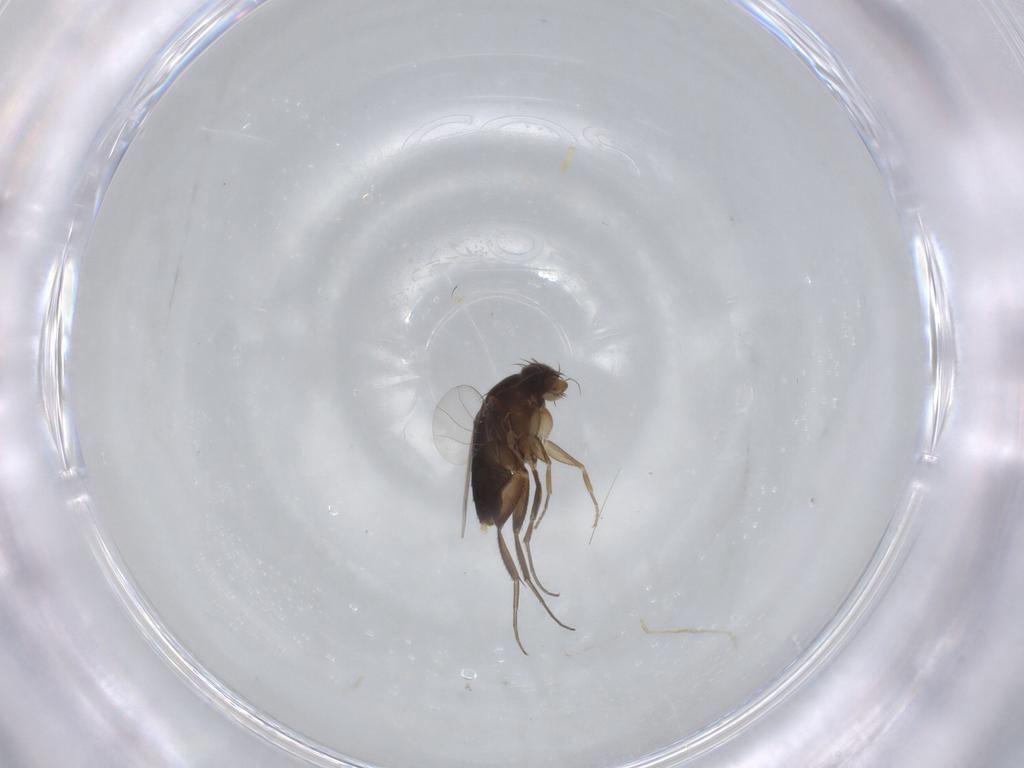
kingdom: Animalia
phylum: Arthropoda
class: Insecta
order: Diptera
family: Phoridae
